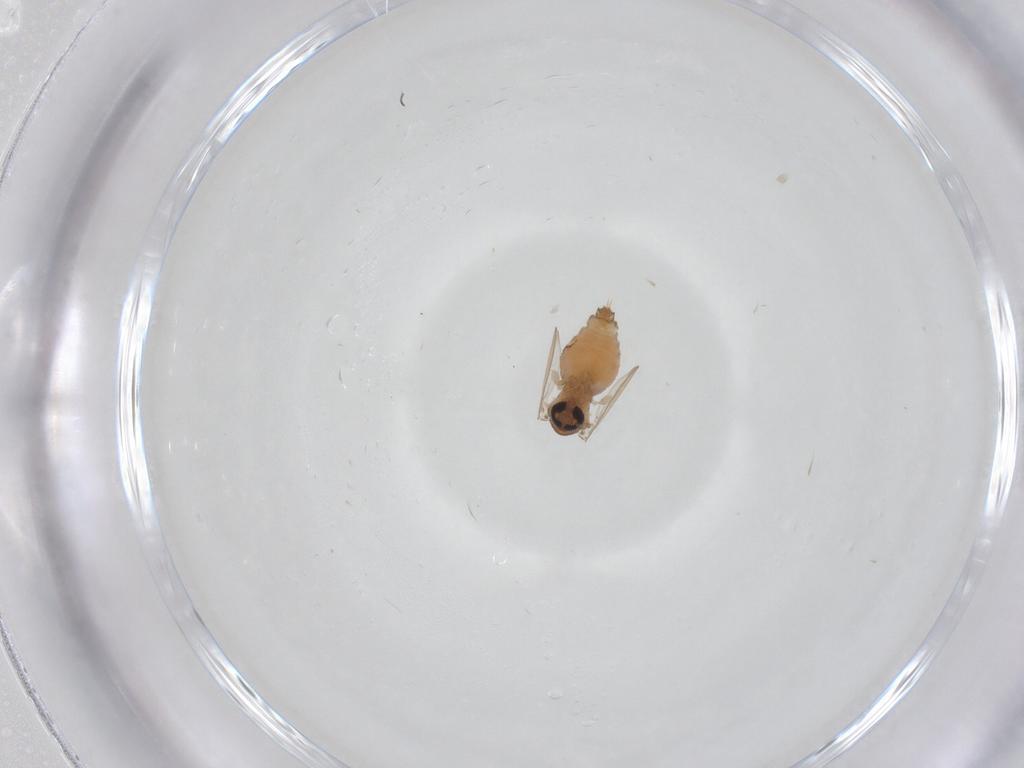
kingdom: Animalia
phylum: Arthropoda
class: Insecta
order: Diptera
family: Psychodidae
